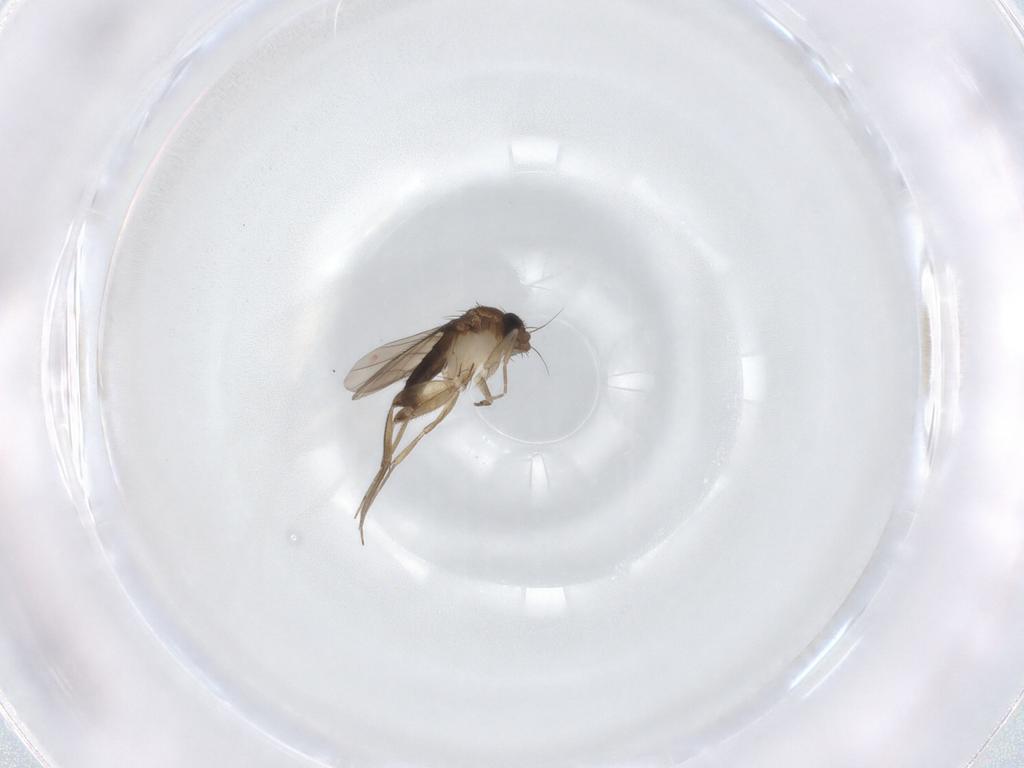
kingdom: Animalia
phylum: Arthropoda
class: Insecta
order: Diptera
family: Phoridae
